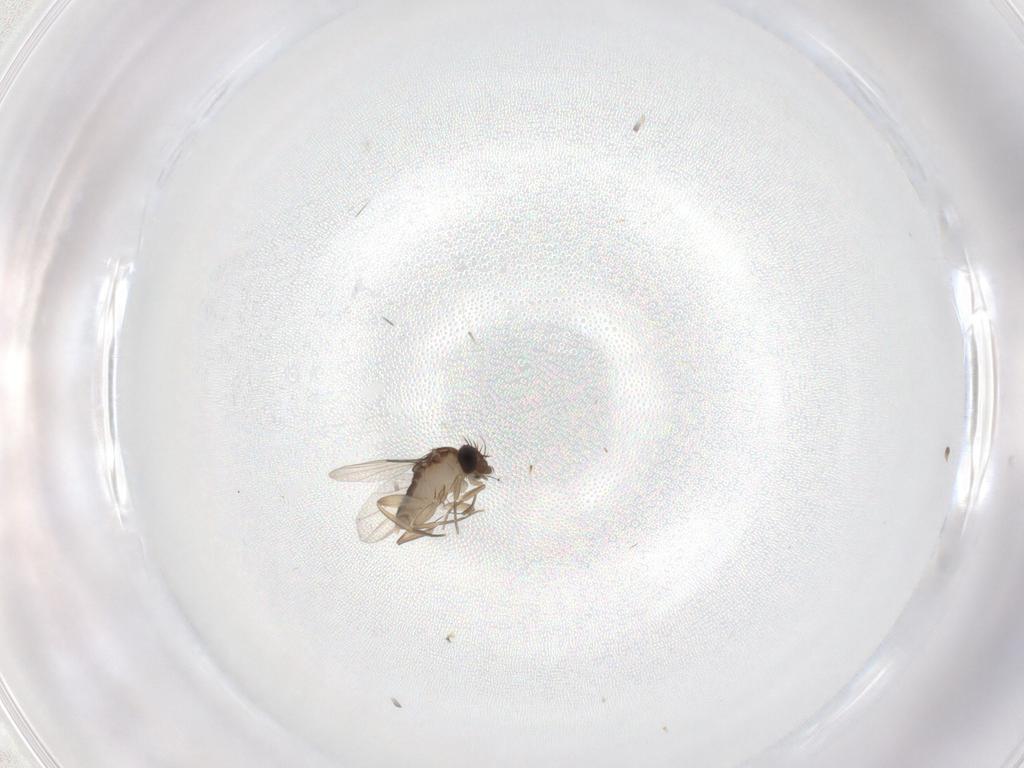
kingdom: Animalia
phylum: Arthropoda
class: Insecta
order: Diptera
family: Phoridae
